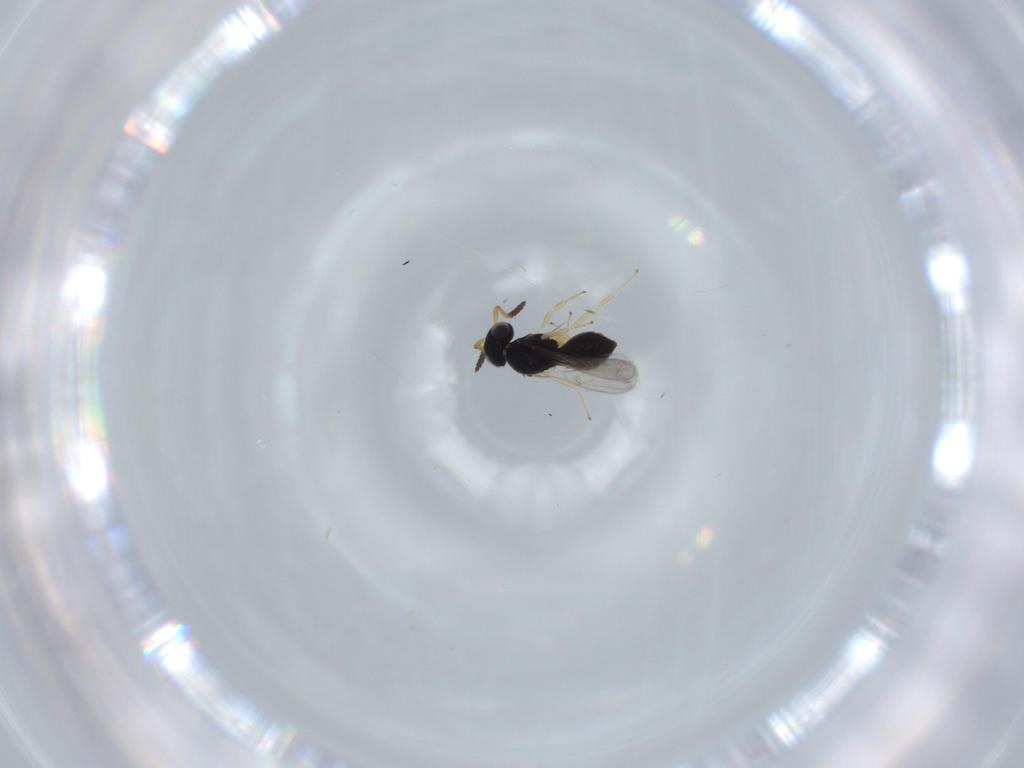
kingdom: Animalia
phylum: Arthropoda
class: Insecta
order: Hymenoptera
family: Scelionidae
